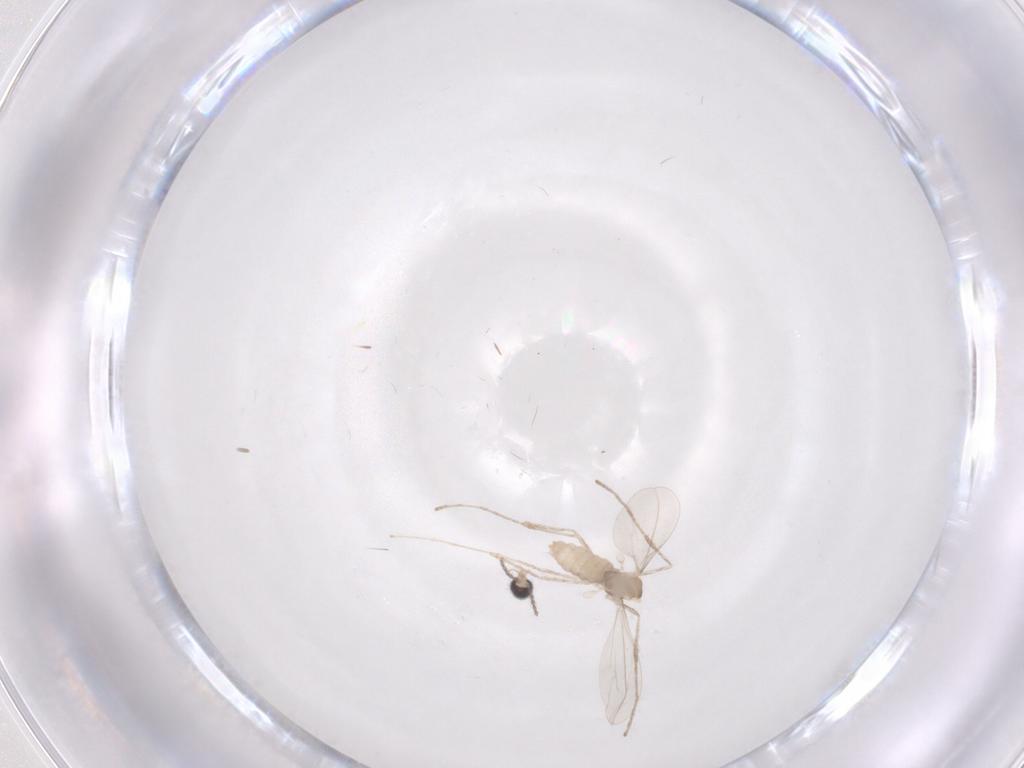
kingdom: Animalia
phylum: Arthropoda
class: Insecta
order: Diptera
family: Cecidomyiidae
